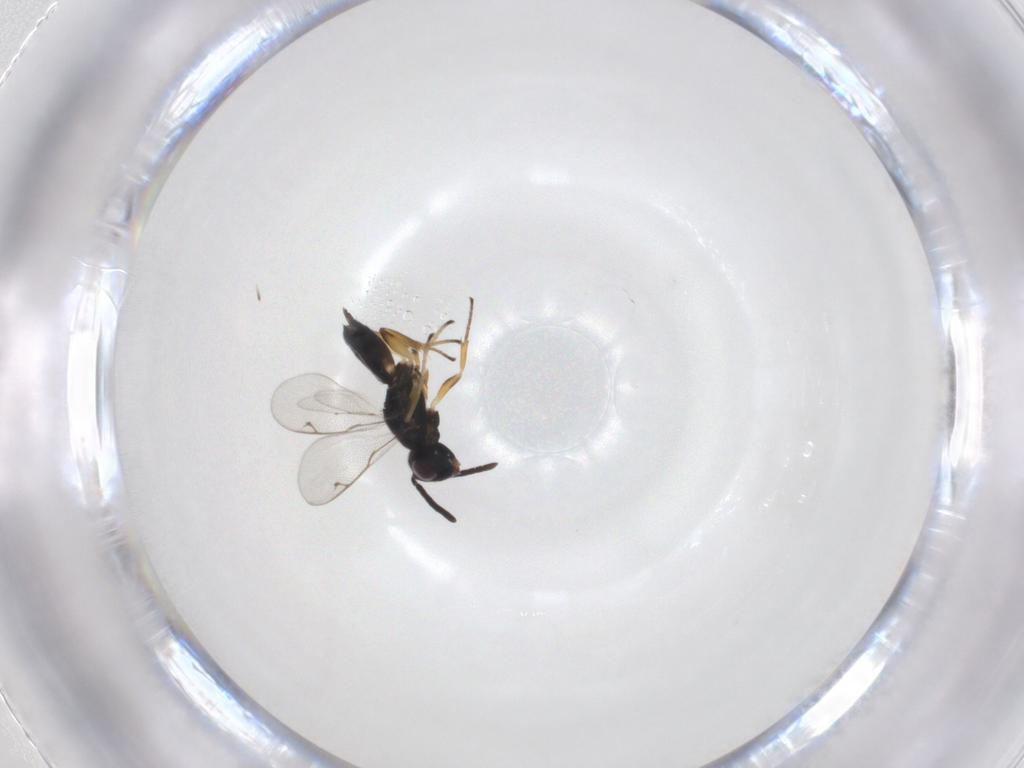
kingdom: Animalia
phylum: Arthropoda
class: Insecta
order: Hymenoptera
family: Eupelmidae
